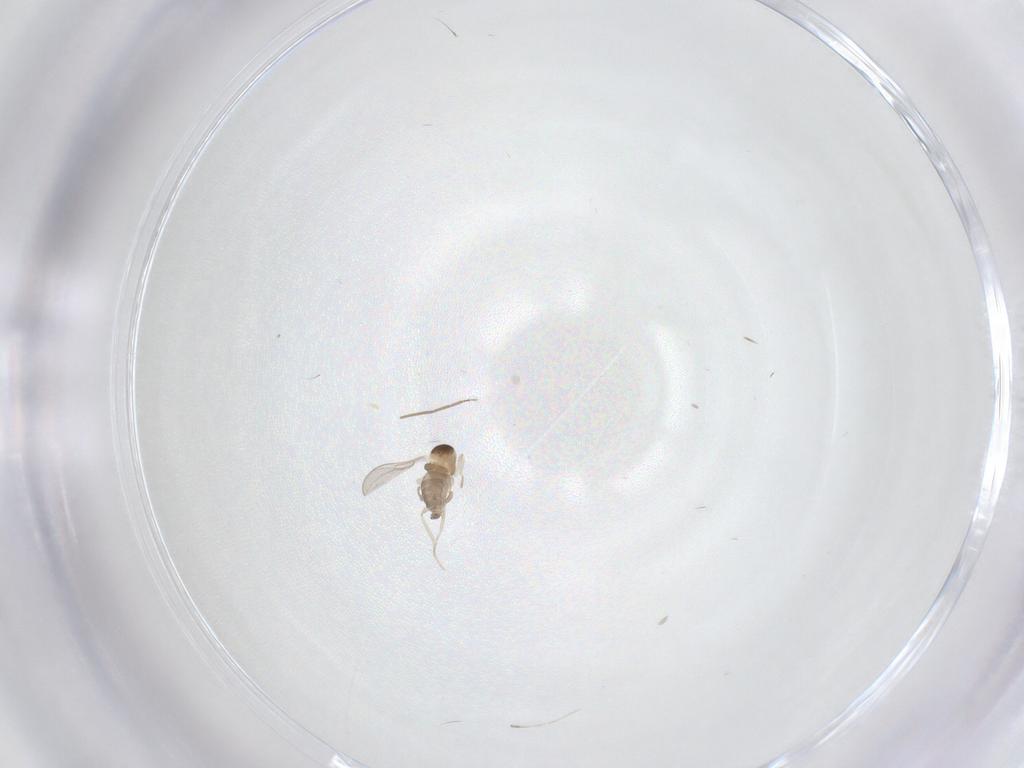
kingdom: Animalia
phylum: Arthropoda
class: Insecta
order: Diptera
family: Cecidomyiidae
